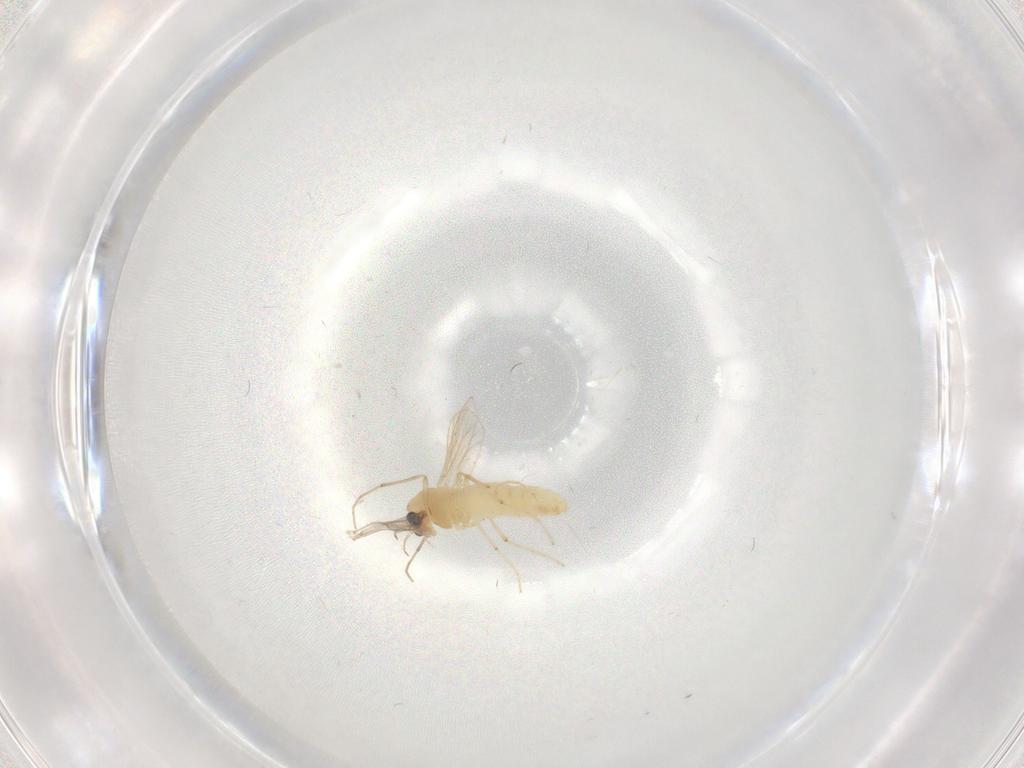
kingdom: Animalia
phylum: Arthropoda
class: Insecta
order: Diptera
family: Chironomidae
